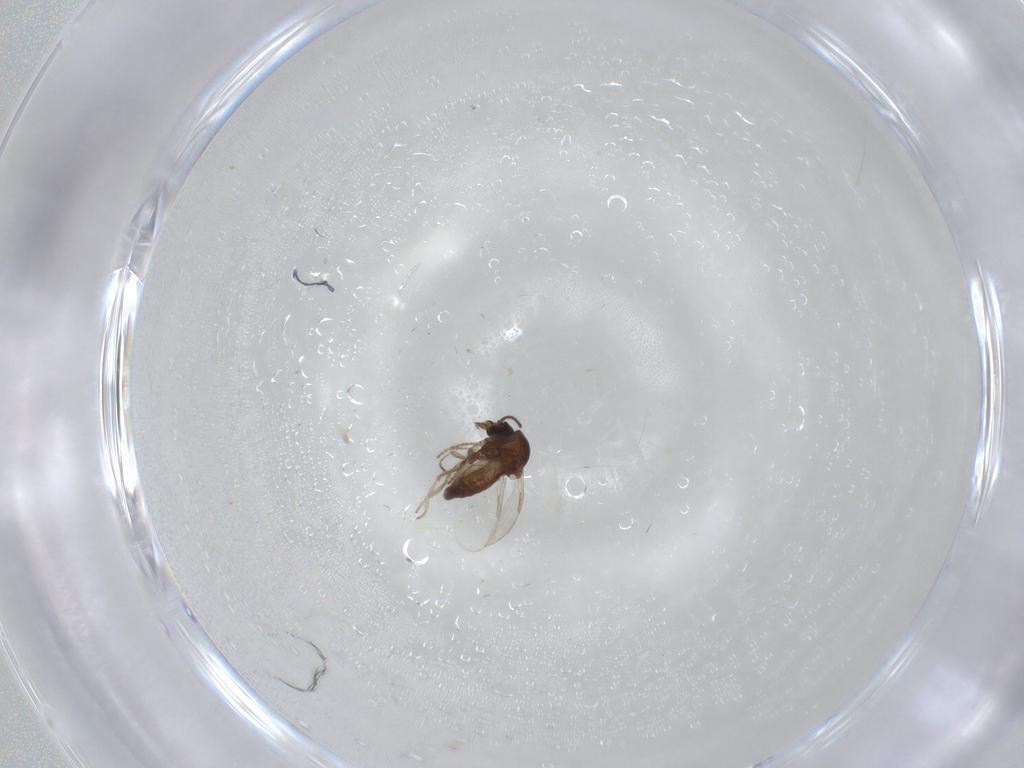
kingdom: Animalia
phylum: Arthropoda
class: Insecta
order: Diptera
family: Ceratopogonidae
